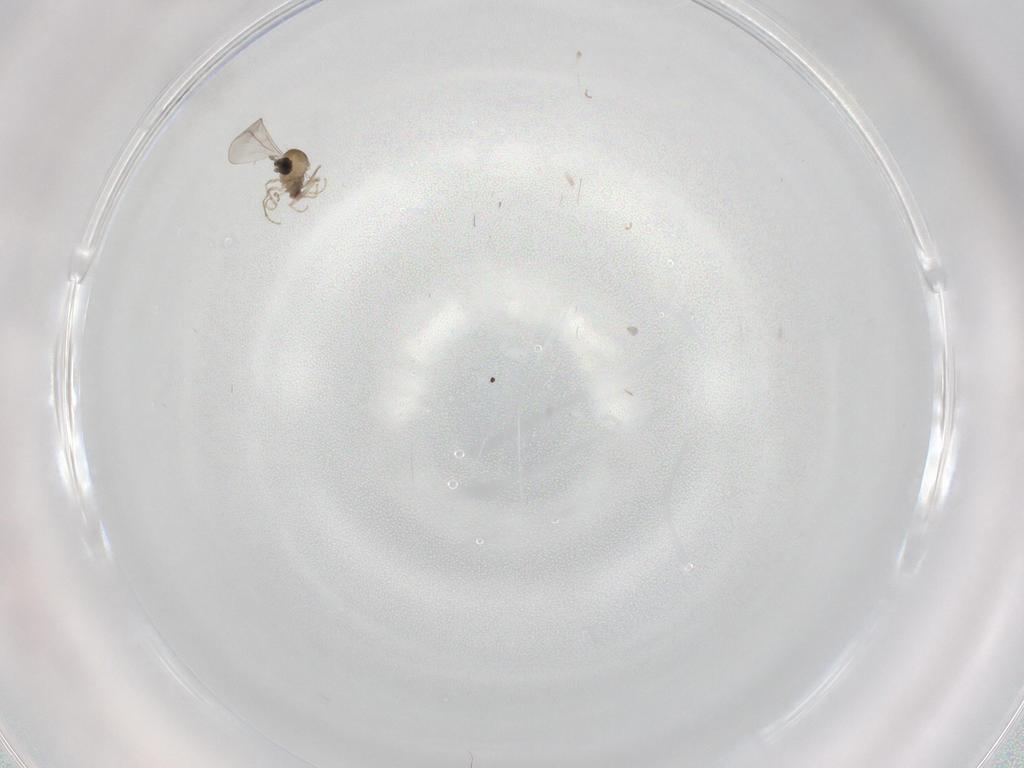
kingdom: Animalia
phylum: Arthropoda
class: Insecta
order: Diptera
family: Cecidomyiidae
